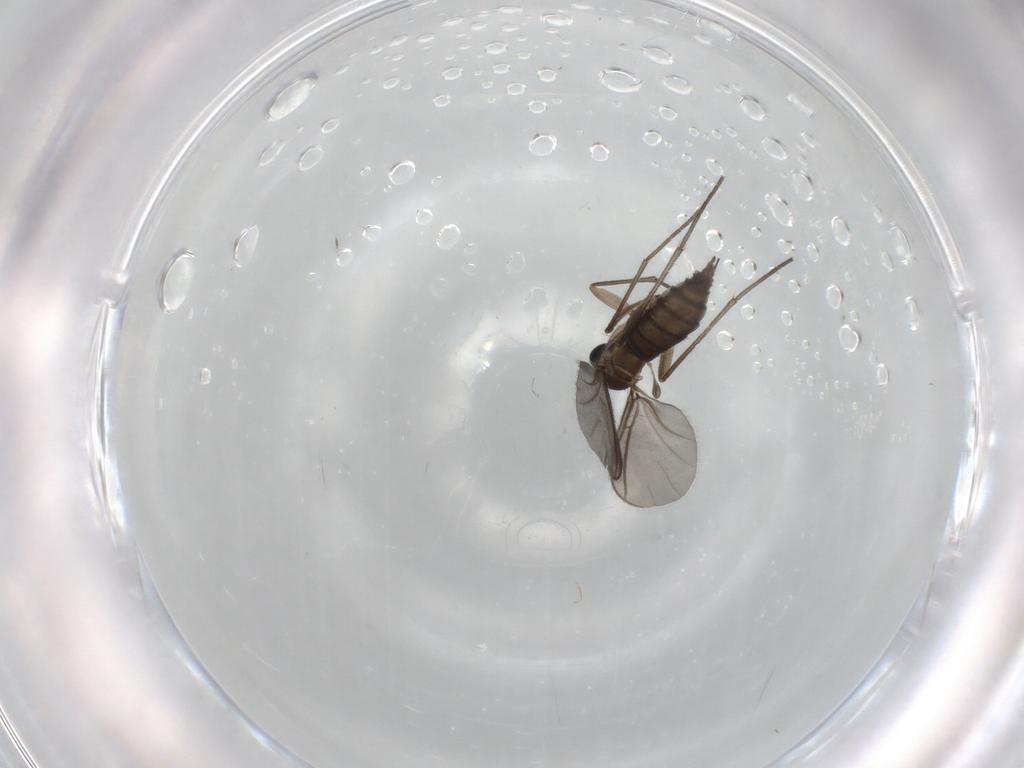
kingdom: Animalia
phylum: Arthropoda
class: Insecta
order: Diptera
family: Sciaridae
